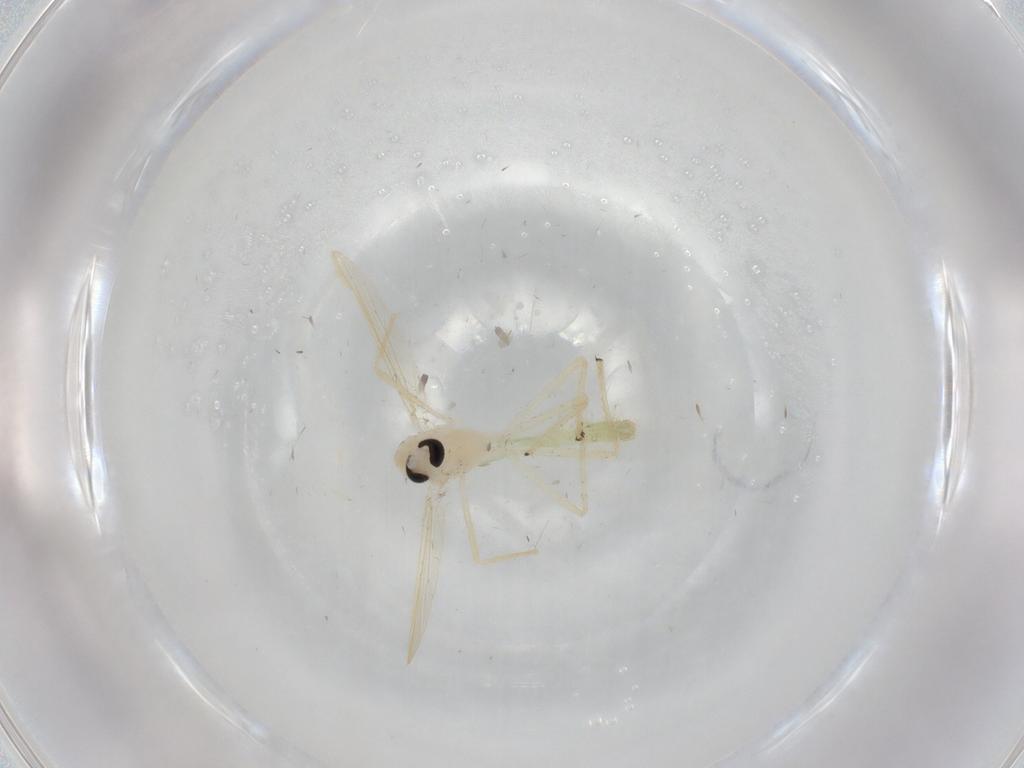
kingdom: Animalia
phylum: Arthropoda
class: Insecta
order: Diptera
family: Chironomidae
